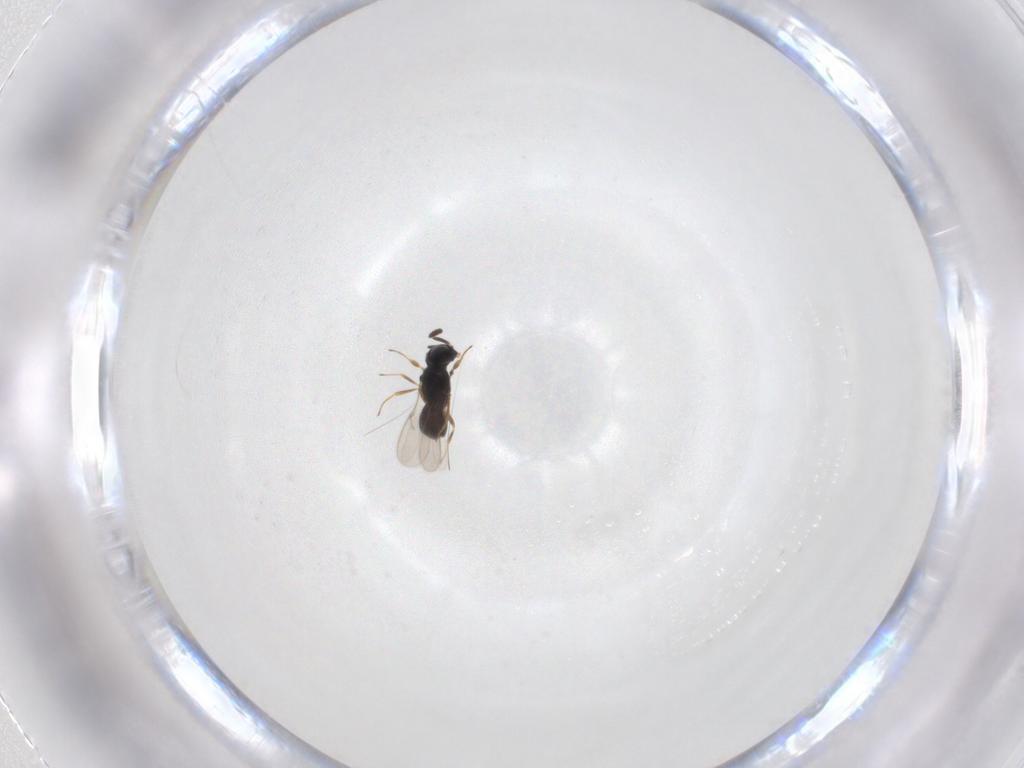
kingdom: Animalia
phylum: Arthropoda
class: Insecta
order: Hymenoptera
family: Scelionidae
